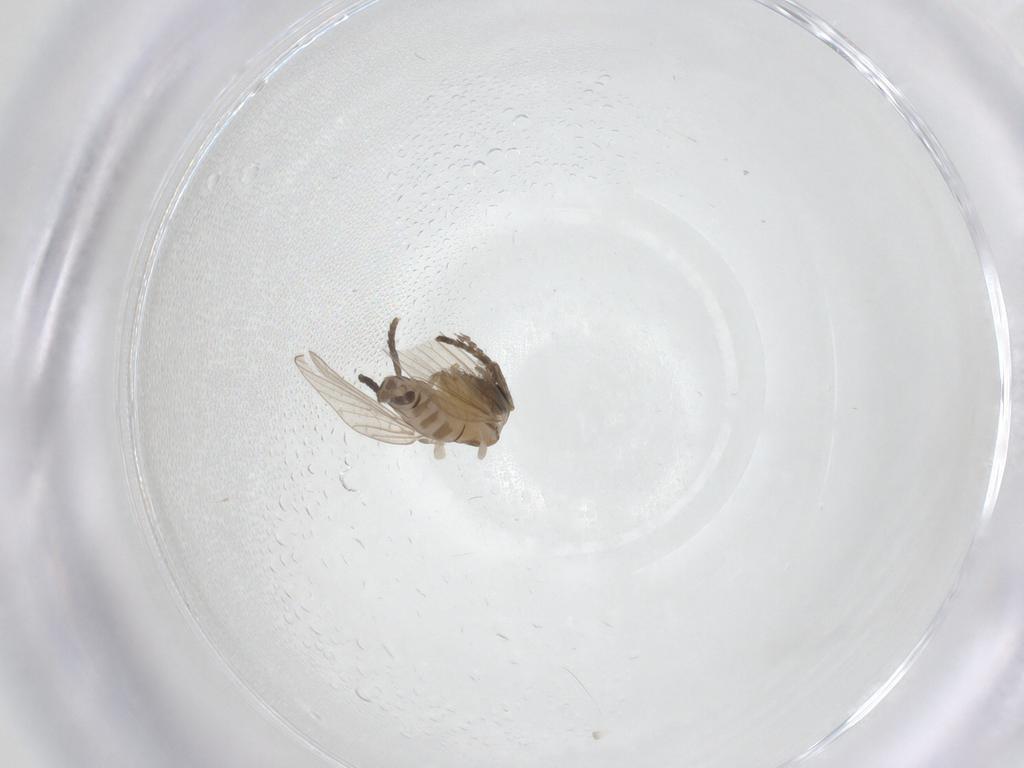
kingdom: Animalia
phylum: Arthropoda
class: Insecta
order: Diptera
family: Psychodidae
